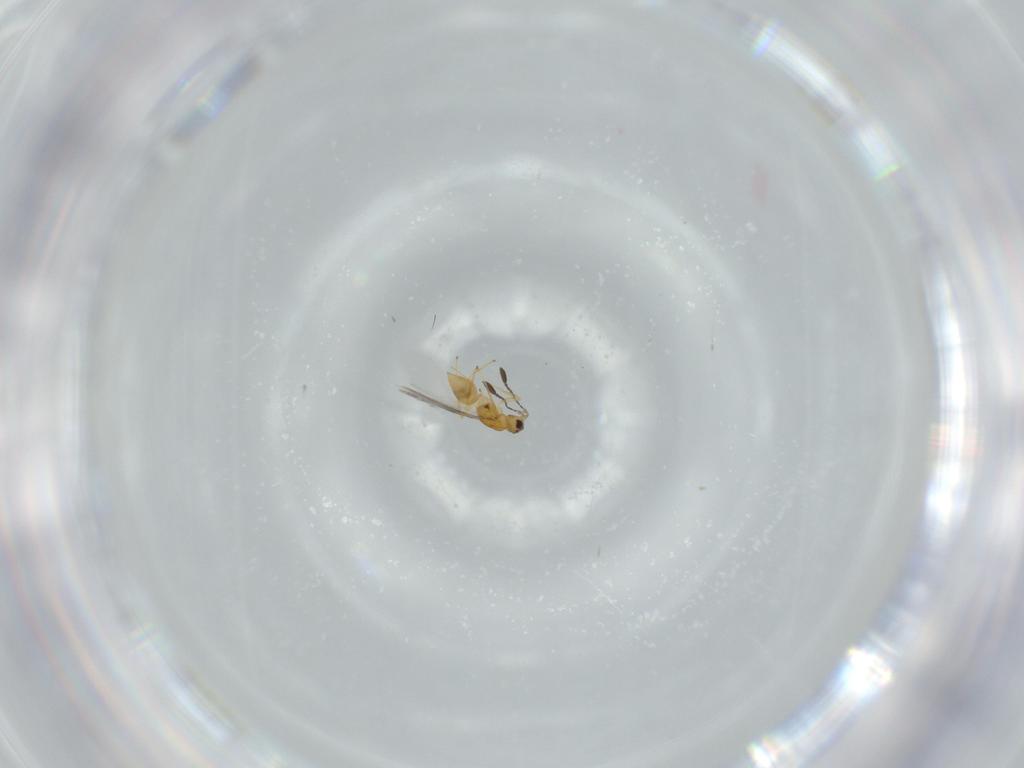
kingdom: Animalia
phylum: Arthropoda
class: Insecta
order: Hymenoptera
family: Mymaridae
